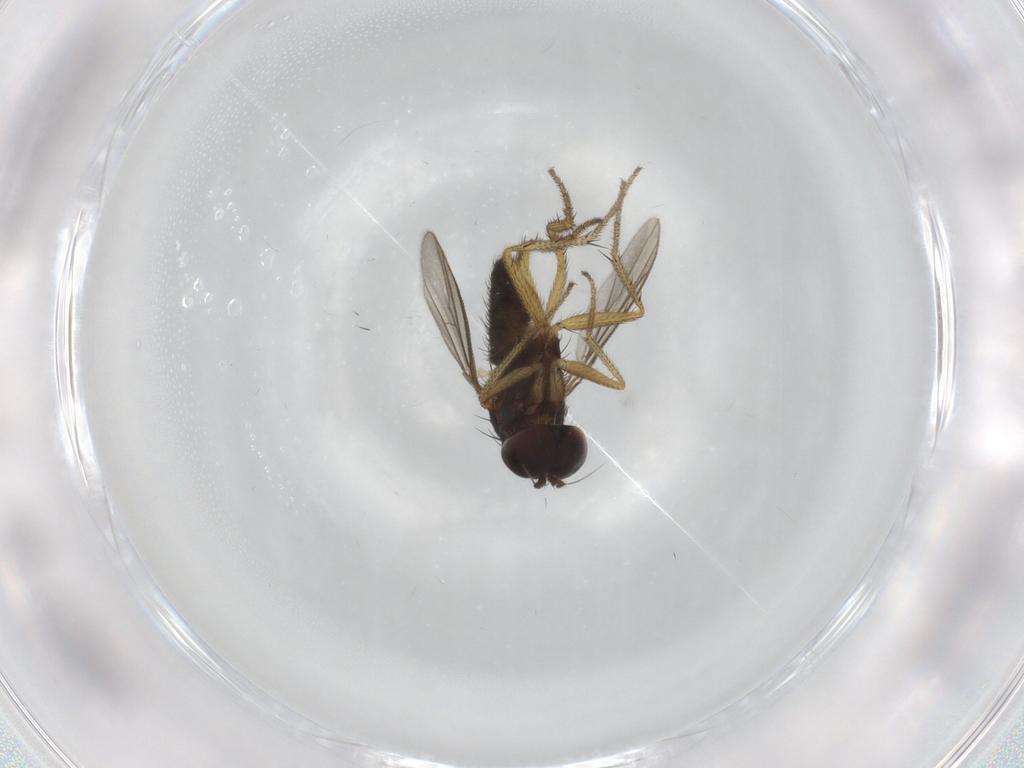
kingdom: Animalia
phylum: Arthropoda
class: Insecta
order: Diptera
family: Dolichopodidae
